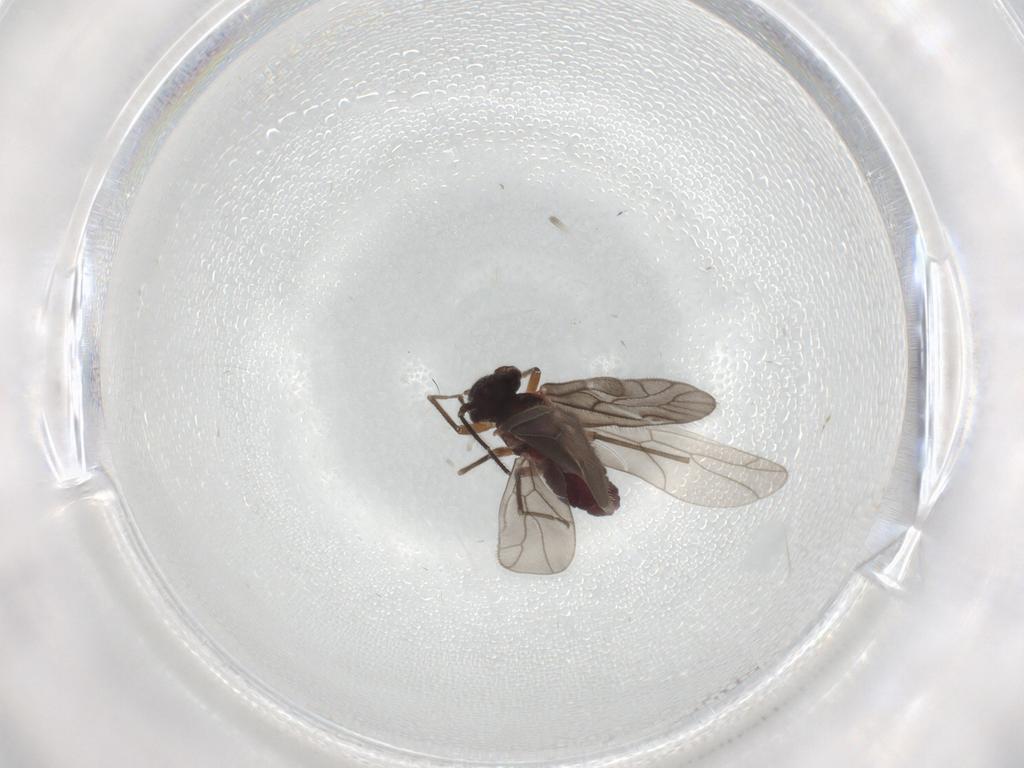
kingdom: Animalia
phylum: Arthropoda
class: Insecta
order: Psocodea
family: Trichopsocidae
